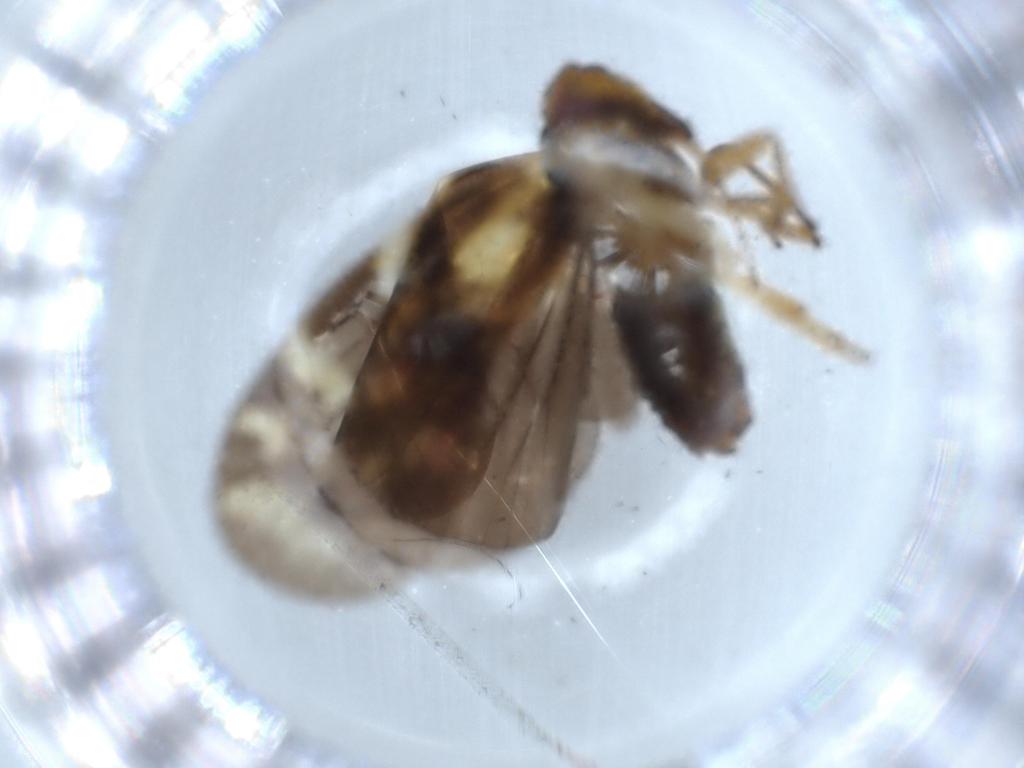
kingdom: Animalia
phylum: Arthropoda
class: Insecta
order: Hemiptera
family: Cixiidae
